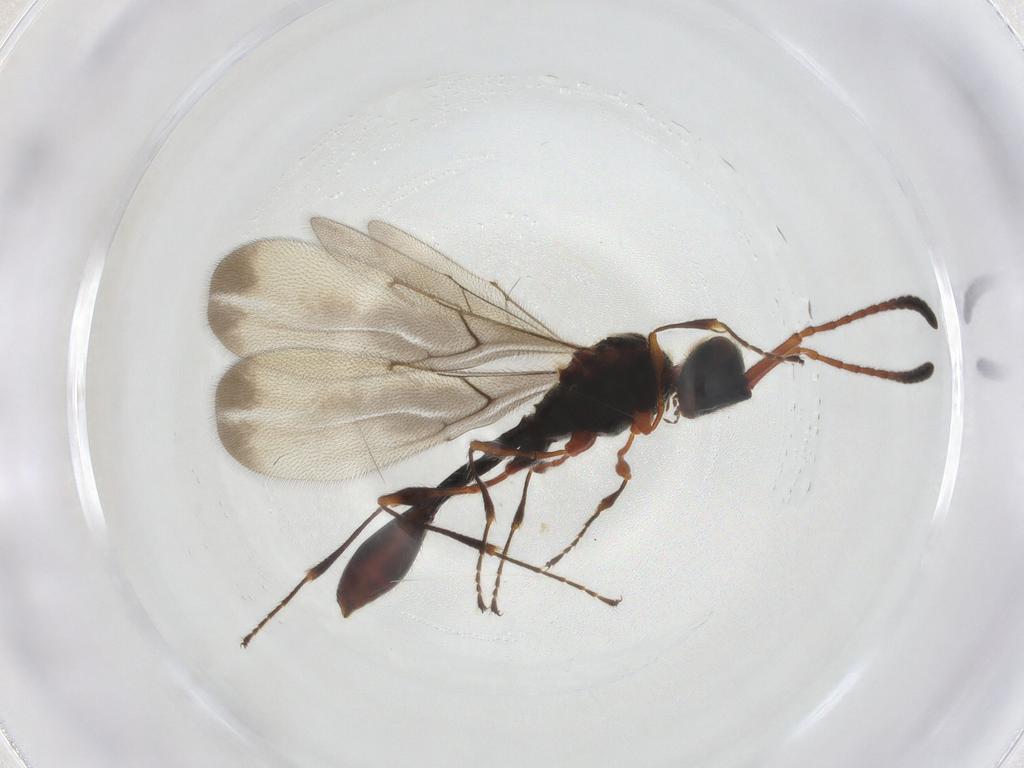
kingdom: Animalia
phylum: Arthropoda
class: Insecta
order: Hymenoptera
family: Diapriidae
